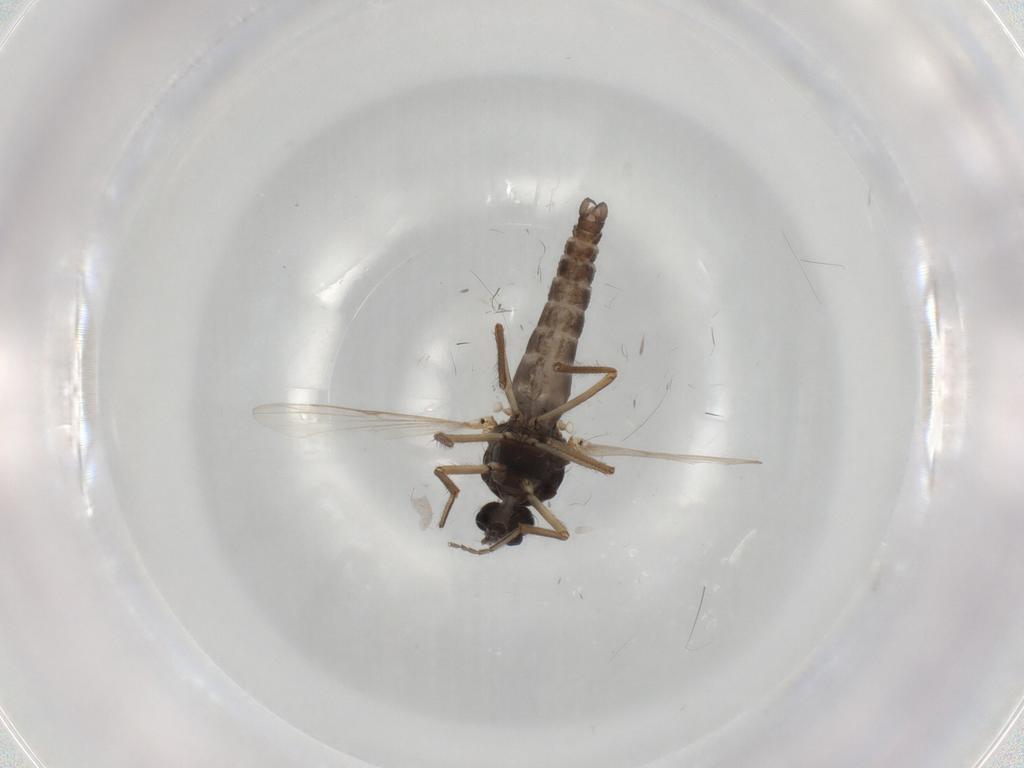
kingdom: Animalia
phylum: Arthropoda
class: Insecta
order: Diptera
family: Ceratopogonidae
